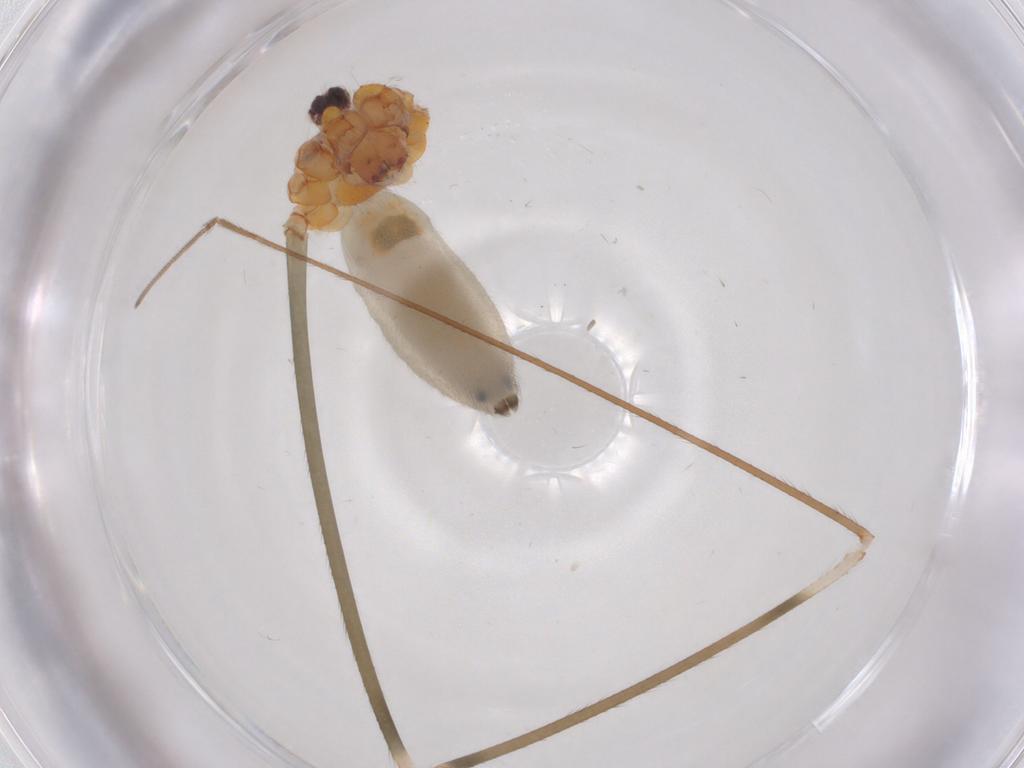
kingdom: Animalia
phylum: Arthropoda
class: Arachnida
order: Araneae
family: Pholcidae
